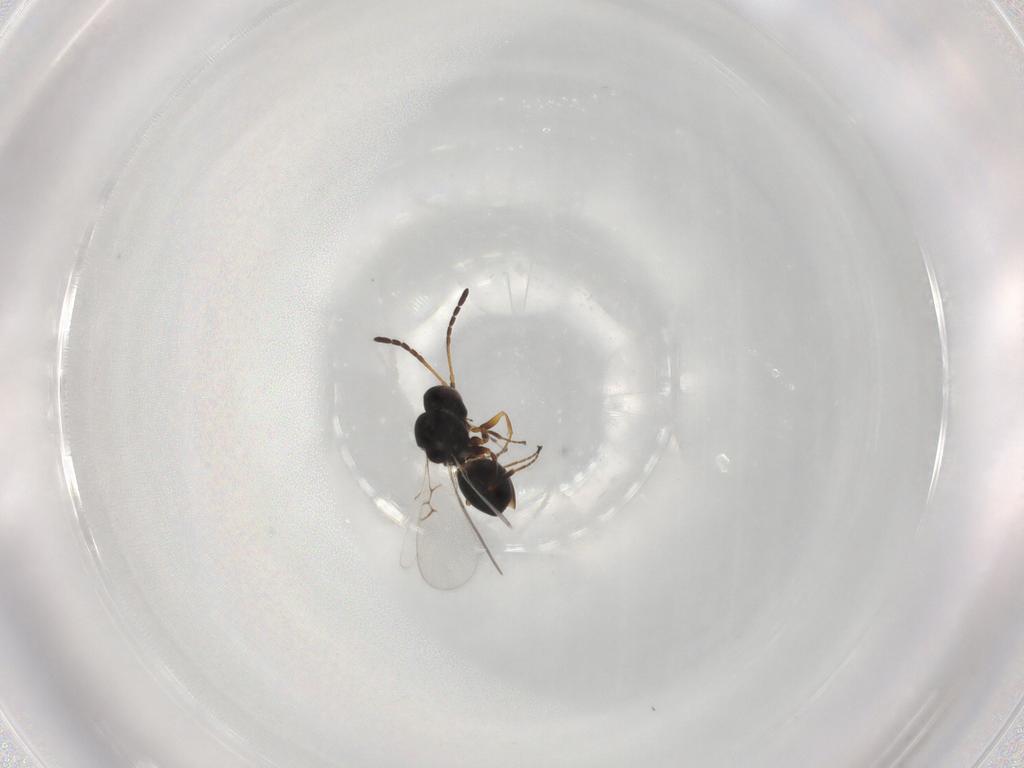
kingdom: Animalia
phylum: Arthropoda
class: Insecta
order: Hymenoptera
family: Figitidae
